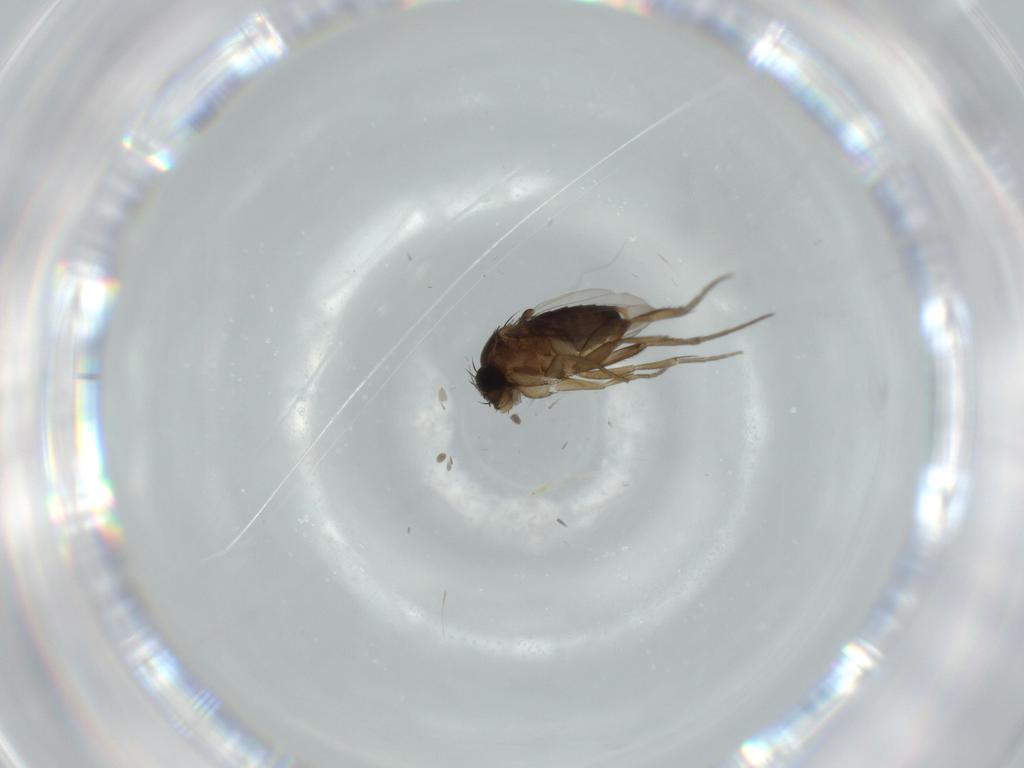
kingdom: Animalia
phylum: Arthropoda
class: Insecta
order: Diptera
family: Phoridae
